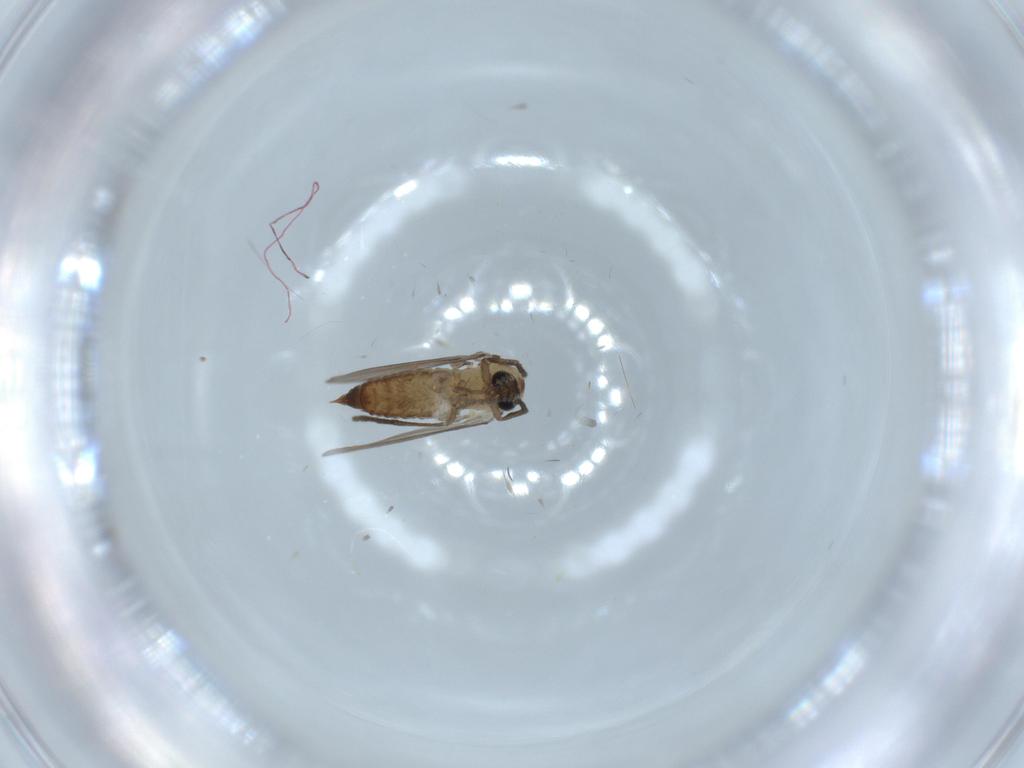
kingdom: Animalia
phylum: Arthropoda
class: Insecta
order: Diptera
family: Psychodidae
